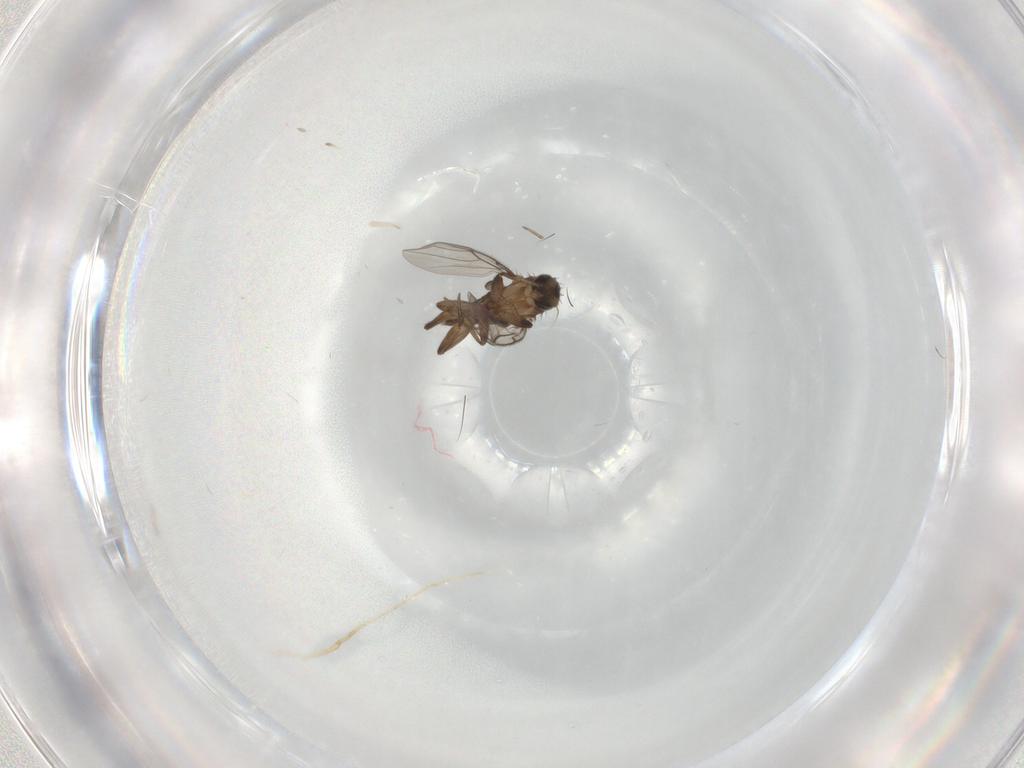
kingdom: Animalia
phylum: Arthropoda
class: Insecta
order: Diptera
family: Phoridae
